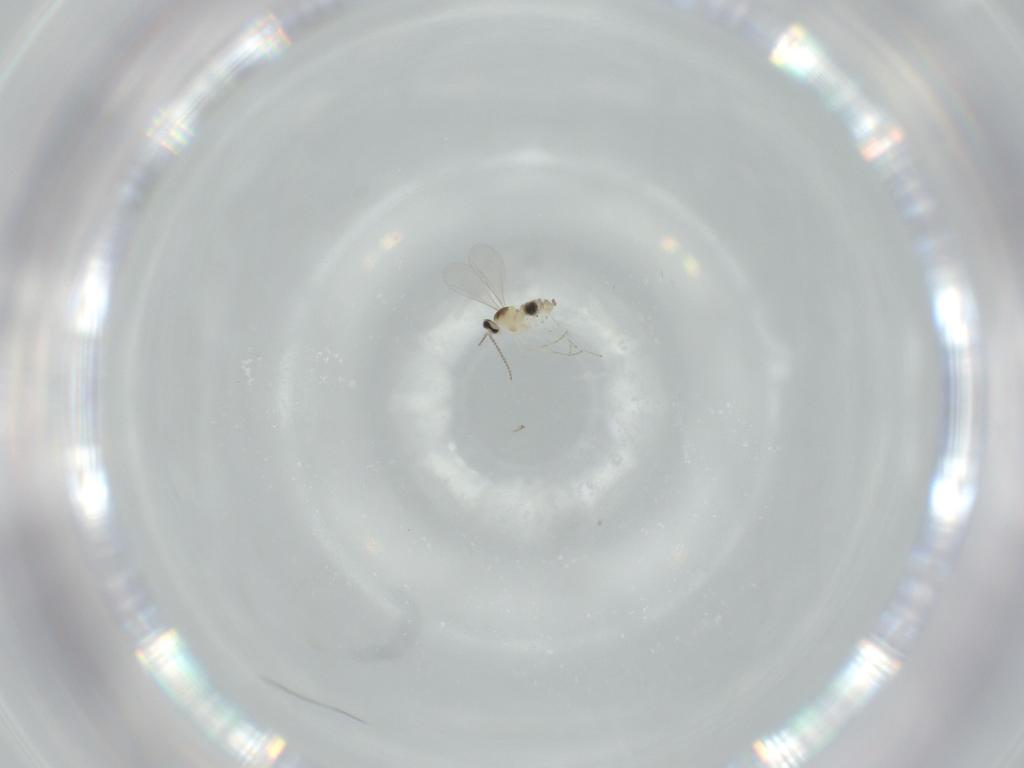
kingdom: Animalia
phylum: Arthropoda
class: Insecta
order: Diptera
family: Cecidomyiidae
